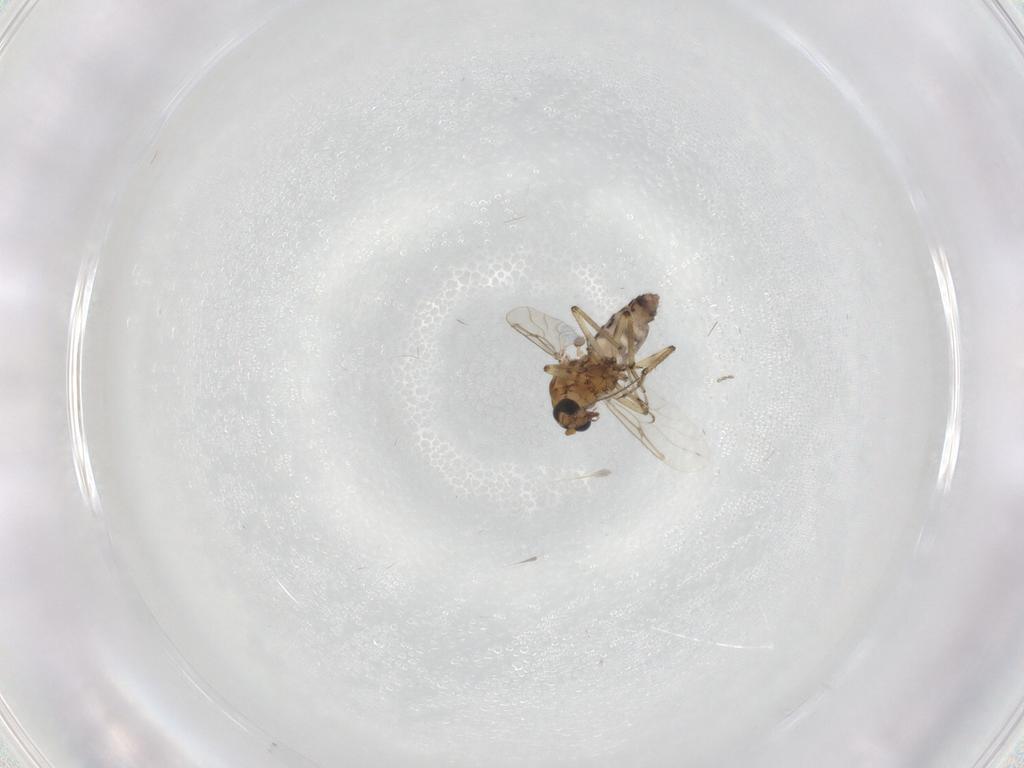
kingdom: Animalia
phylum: Arthropoda
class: Insecta
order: Diptera
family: Ceratopogonidae
